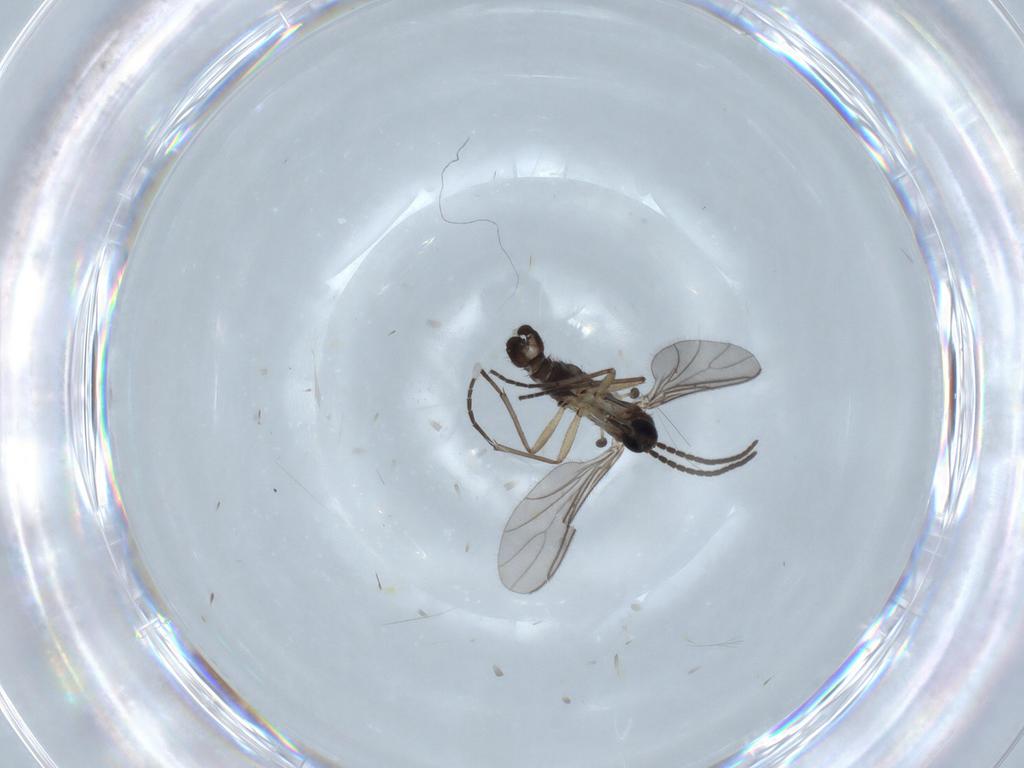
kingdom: Animalia
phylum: Arthropoda
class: Insecta
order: Diptera
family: Sciaridae
